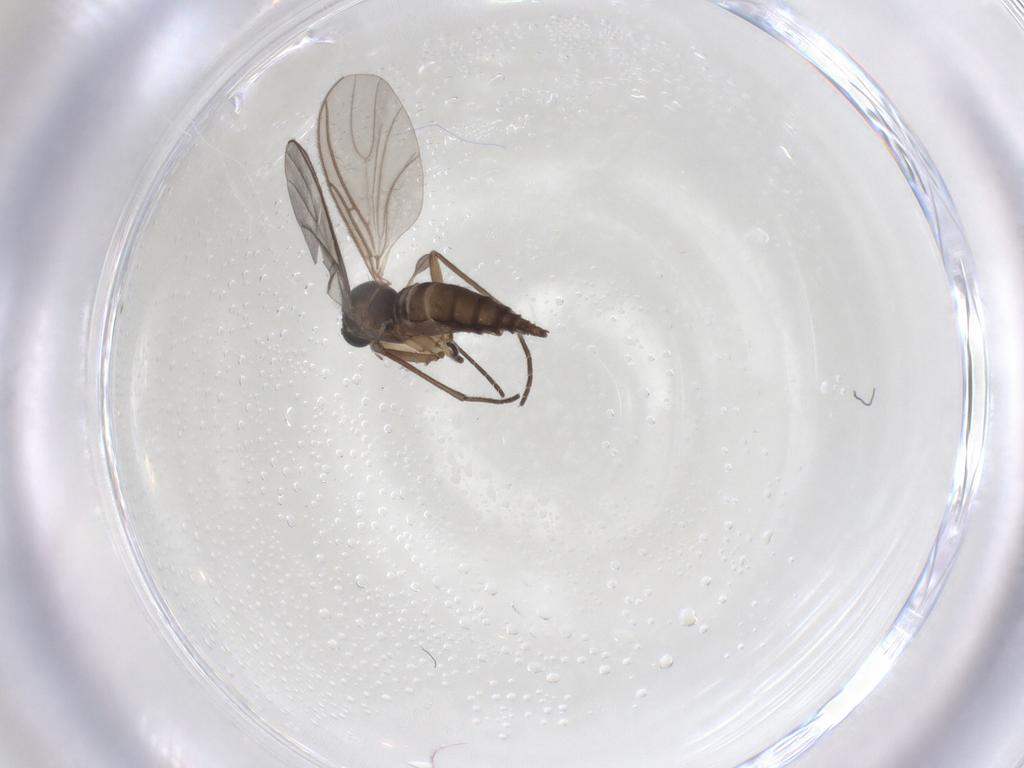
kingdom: Animalia
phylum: Arthropoda
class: Insecta
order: Diptera
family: Sciaridae
